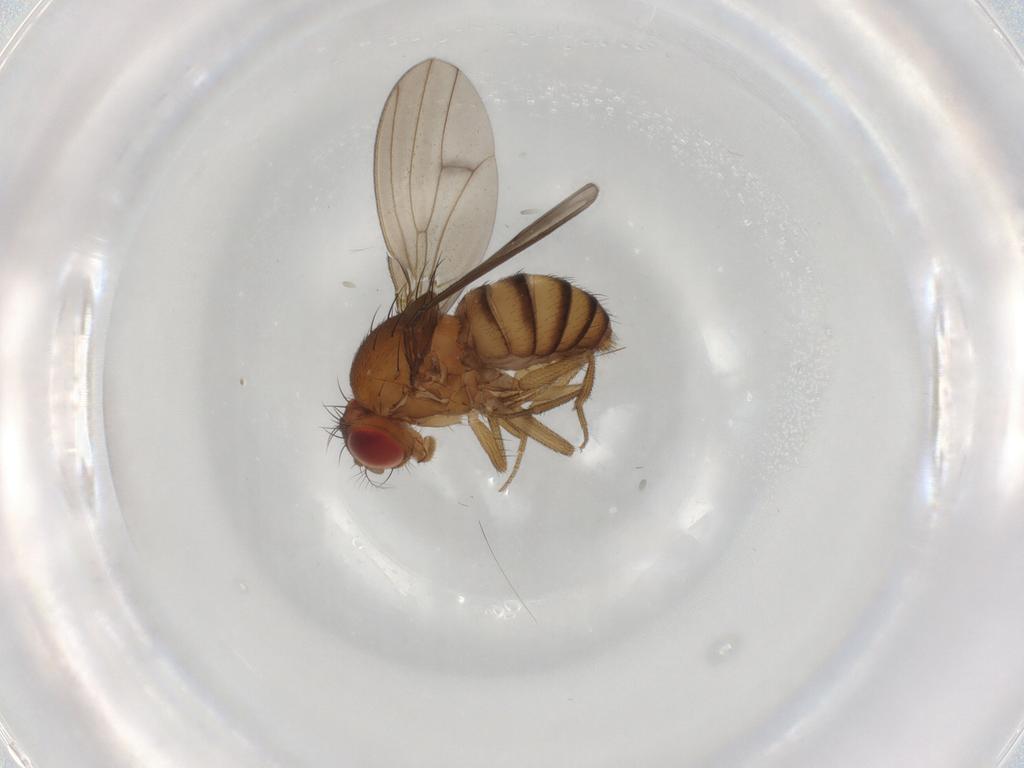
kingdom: Animalia
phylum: Arthropoda
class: Insecta
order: Diptera
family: Drosophilidae
